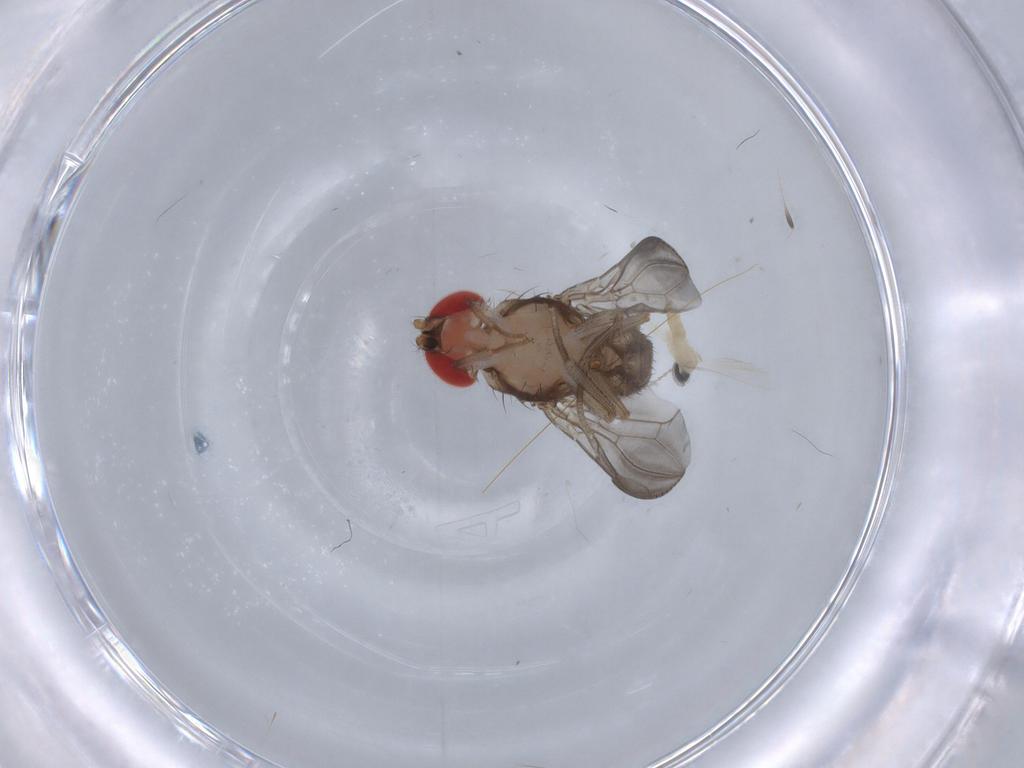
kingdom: Animalia
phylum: Arthropoda
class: Insecta
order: Diptera
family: Cecidomyiidae
